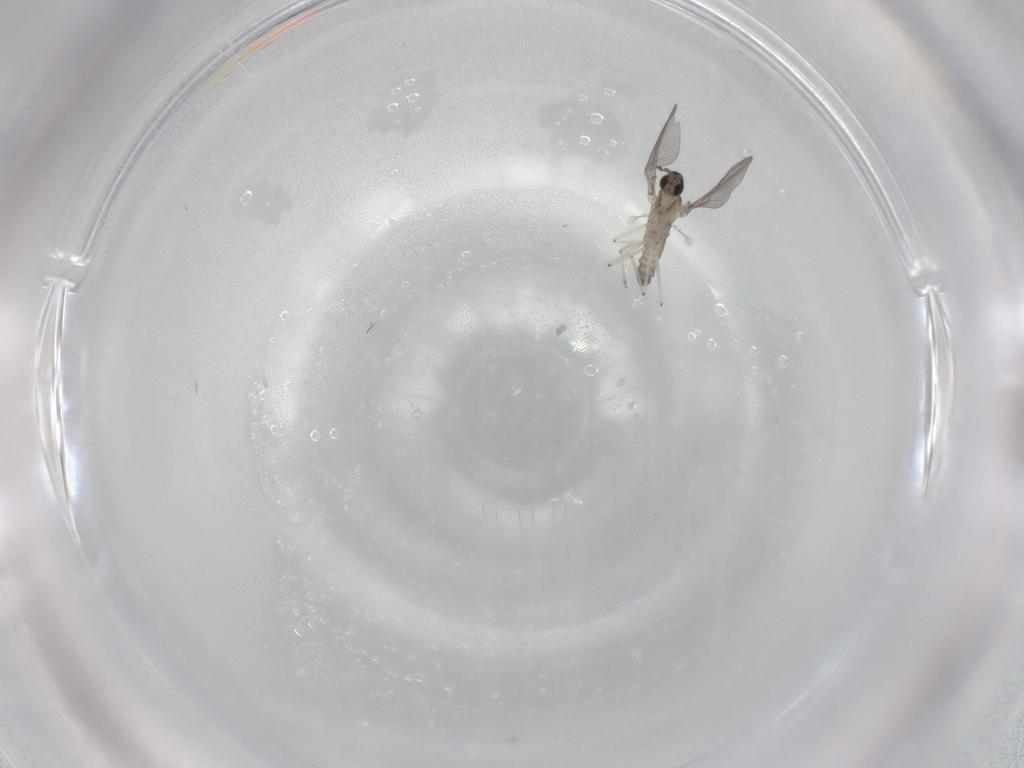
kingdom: Animalia
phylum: Arthropoda
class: Insecta
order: Diptera
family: Cecidomyiidae
